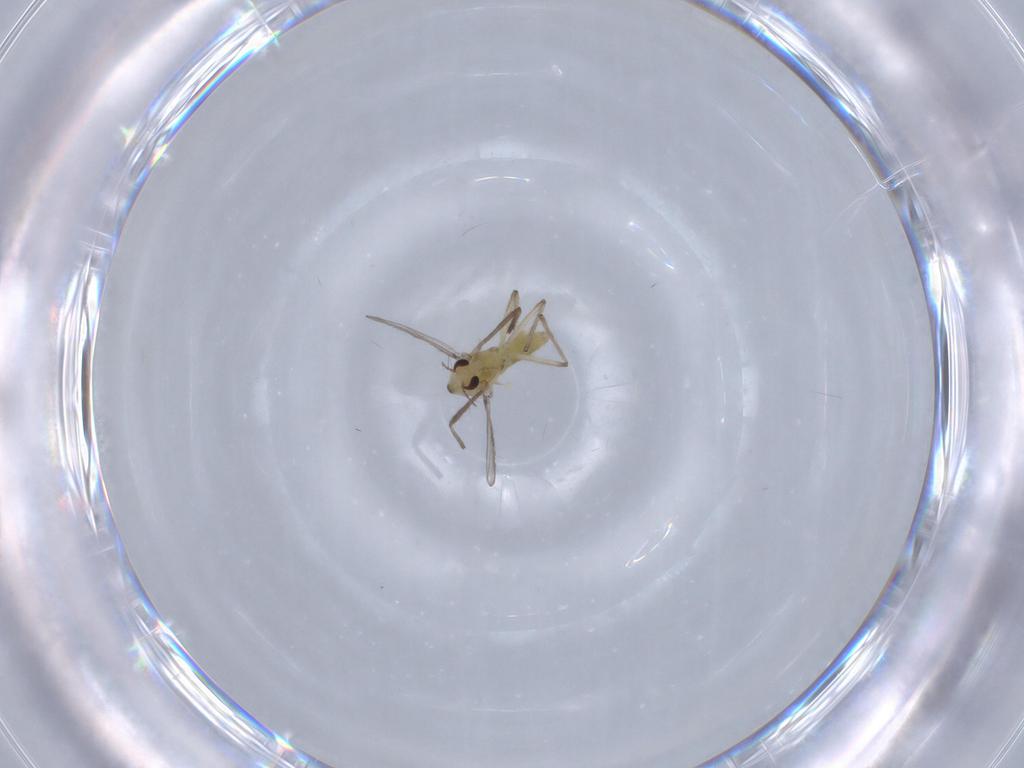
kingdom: Animalia
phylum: Arthropoda
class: Insecta
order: Diptera
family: Chironomidae
